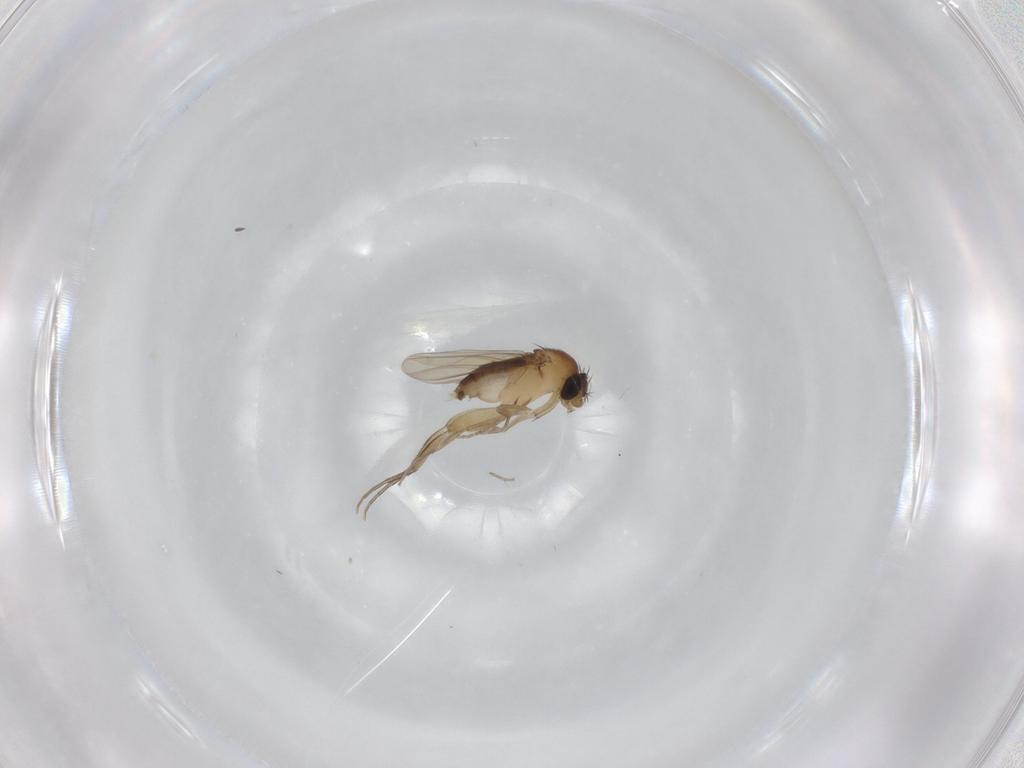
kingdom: Animalia
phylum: Arthropoda
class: Insecta
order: Diptera
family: Phoridae
